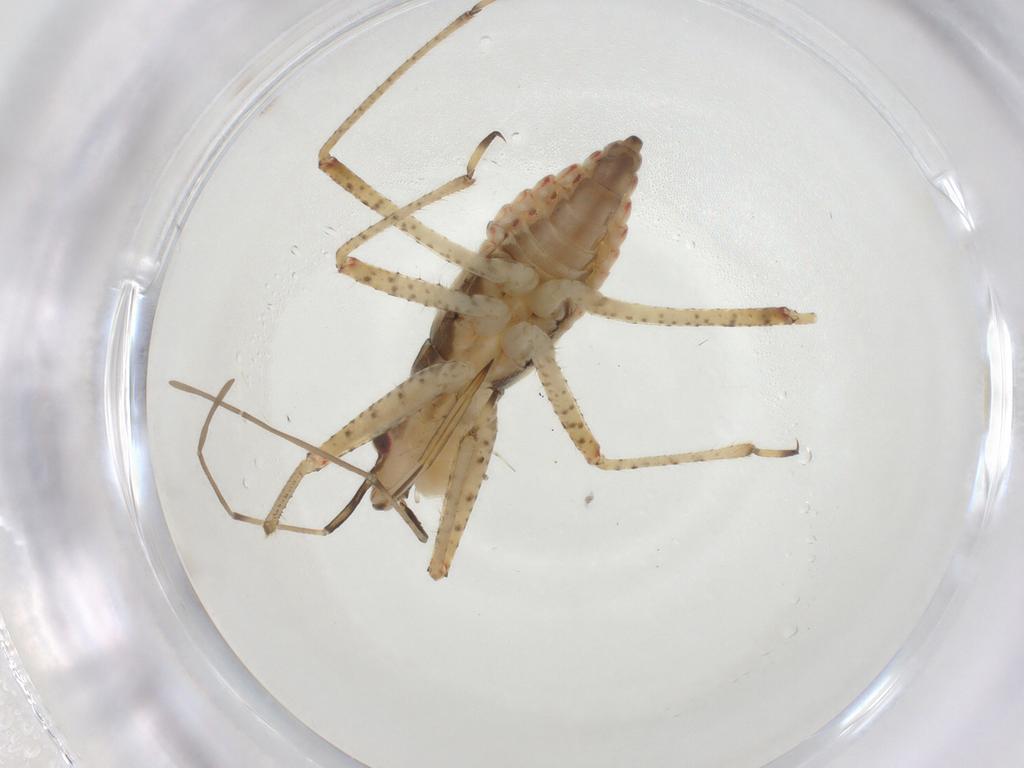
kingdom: Animalia
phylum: Arthropoda
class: Insecta
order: Hemiptera
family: Nabidae
